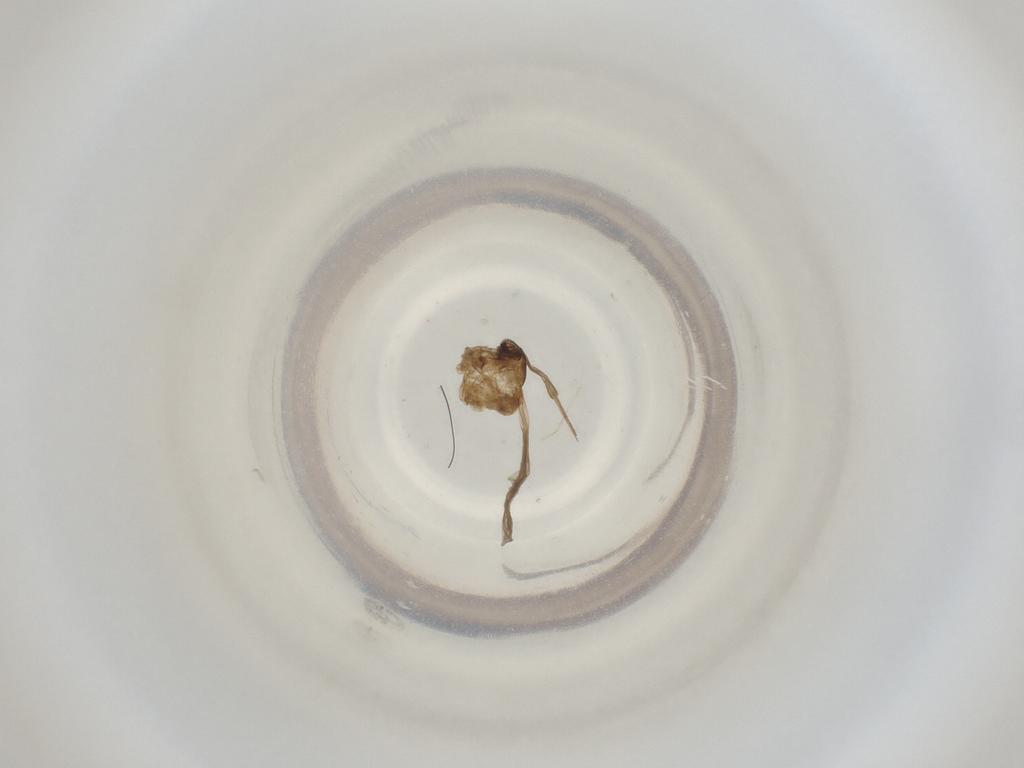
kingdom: Animalia
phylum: Arthropoda
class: Insecta
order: Diptera
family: Cecidomyiidae
